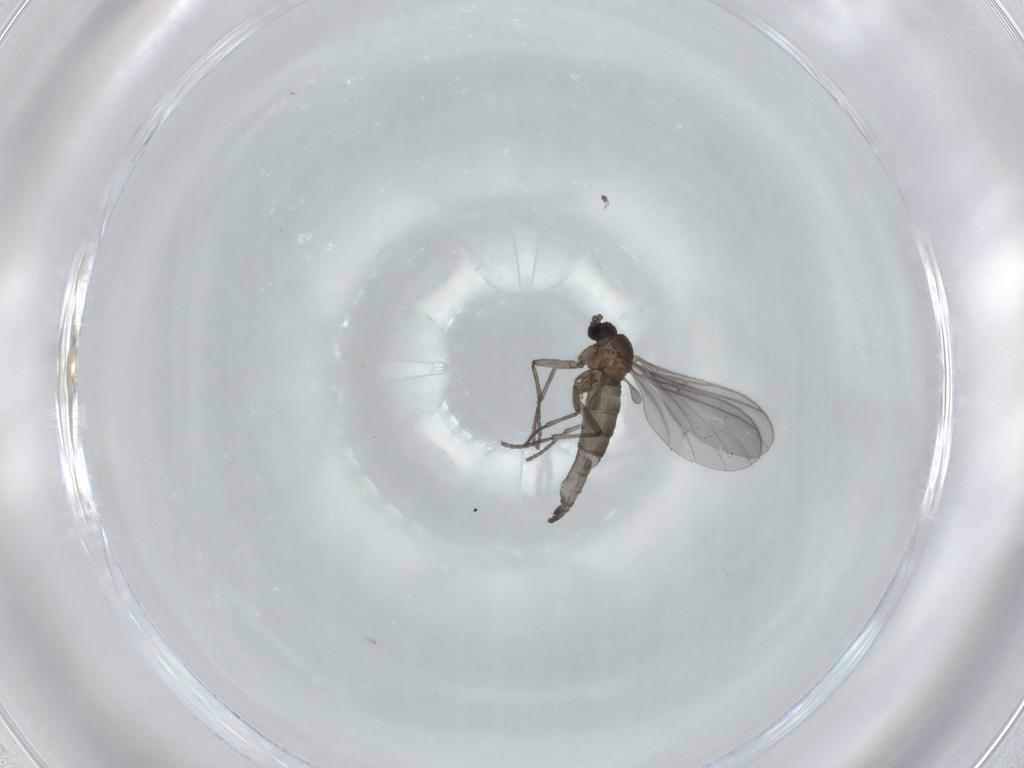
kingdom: Animalia
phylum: Arthropoda
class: Insecta
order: Diptera
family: Sciaridae
